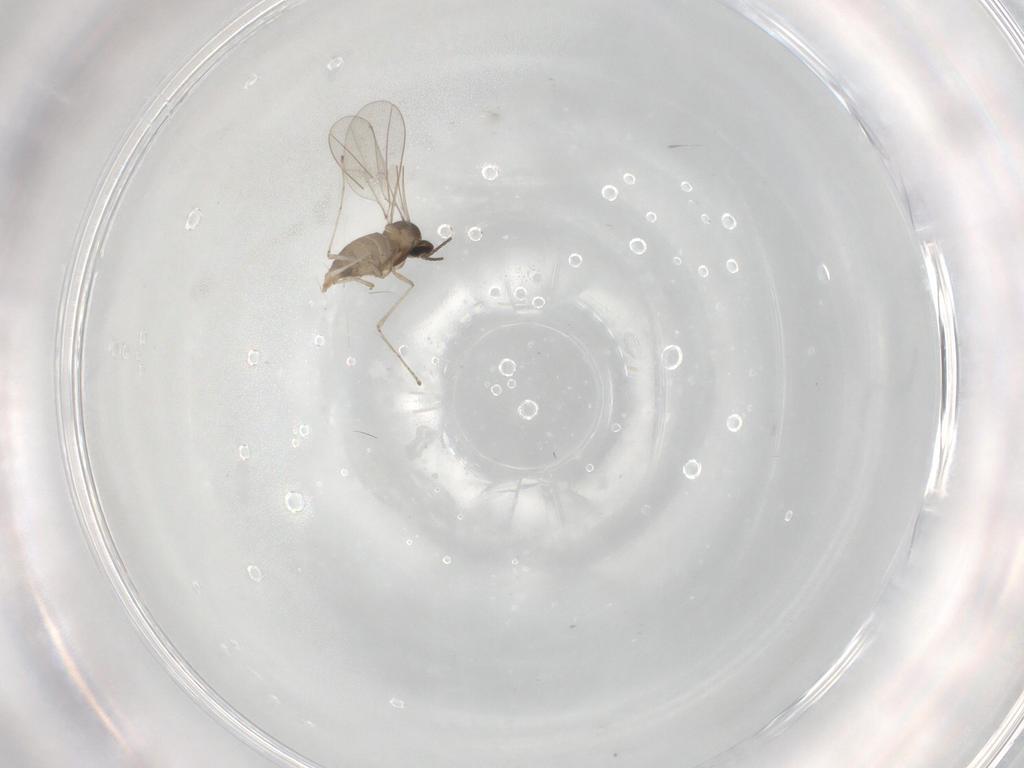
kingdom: Animalia
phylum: Arthropoda
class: Insecta
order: Diptera
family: Cecidomyiidae
